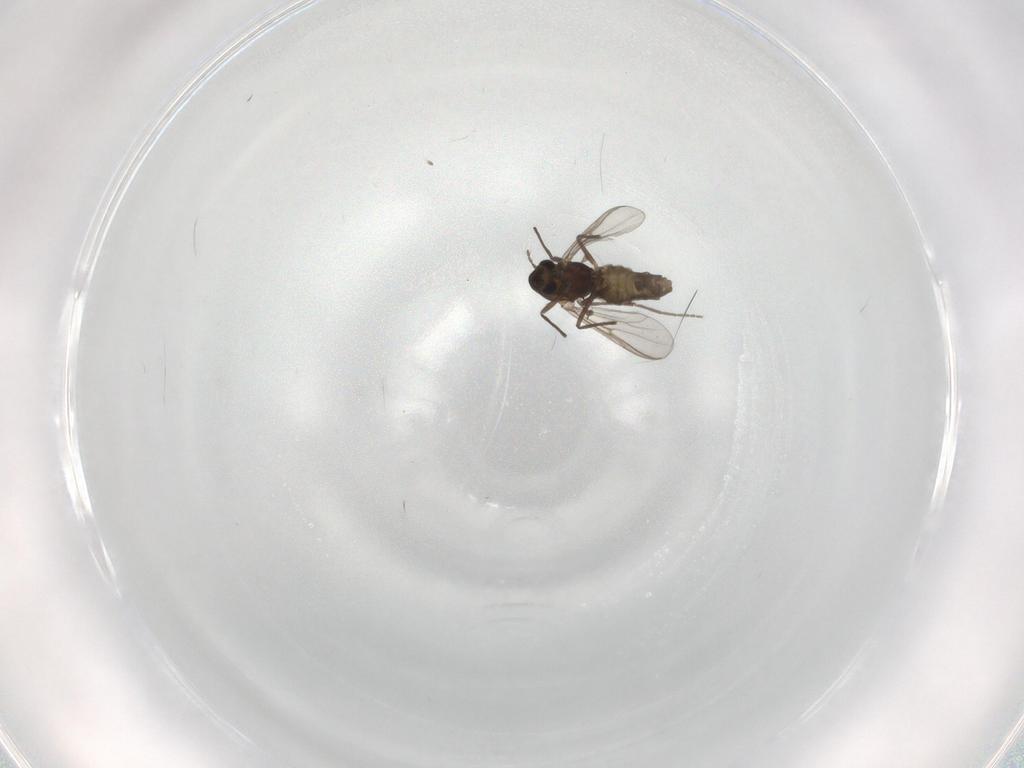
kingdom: Animalia
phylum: Arthropoda
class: Insecta
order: Diptera
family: Chironomidae
